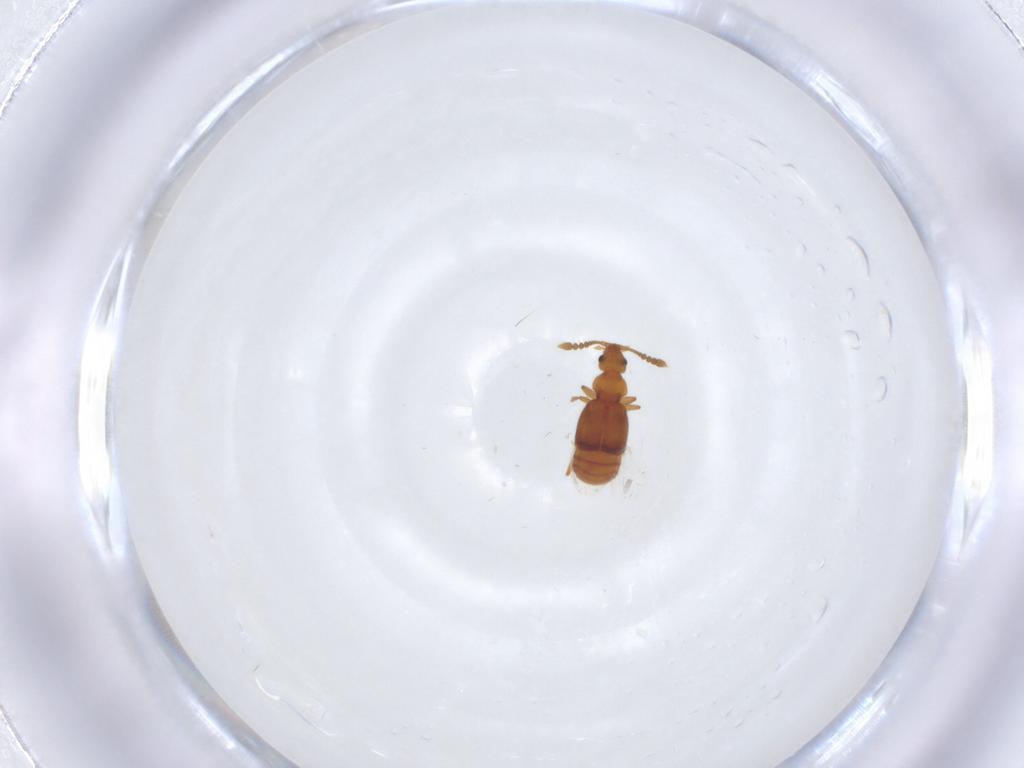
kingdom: Animalia
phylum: Arthropoda
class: Insecta
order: Coleoptera
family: Staphylinidae
